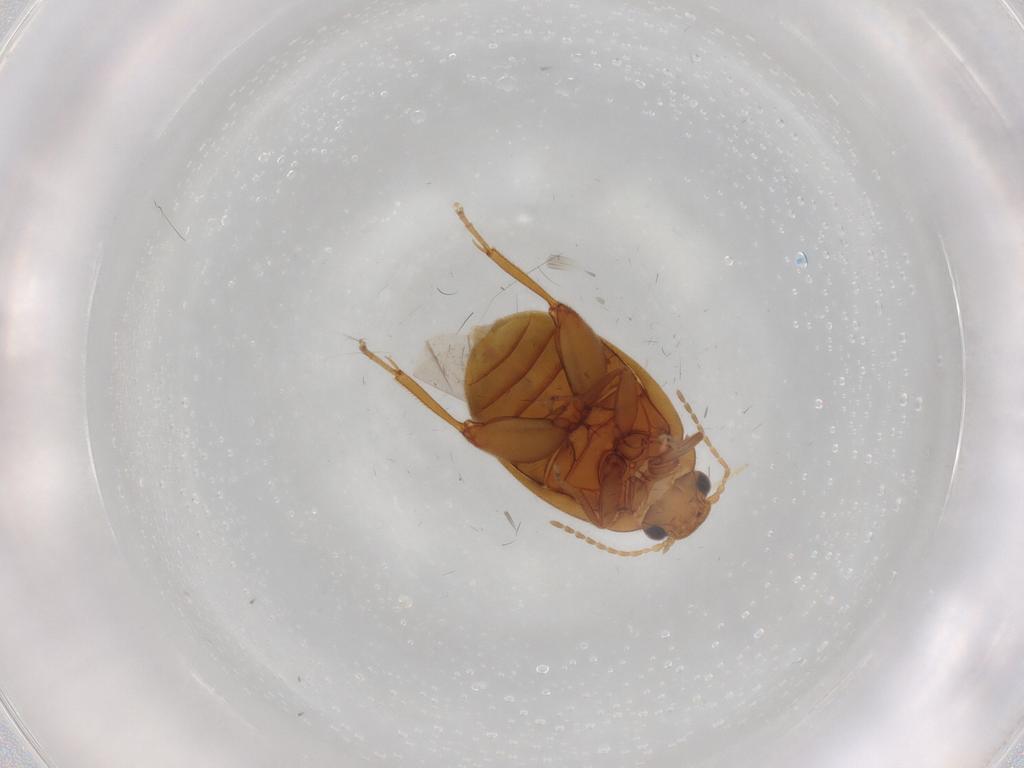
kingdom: Animalia
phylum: Arthropoda
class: Insecta
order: Coleoptera
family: Scirtidae
